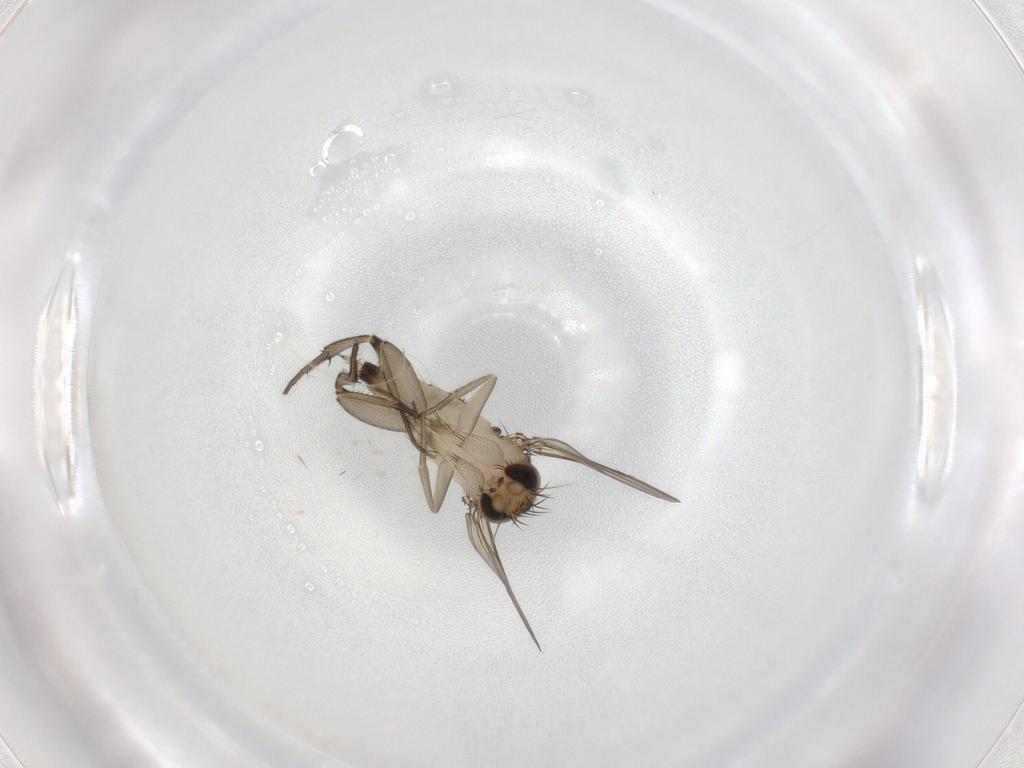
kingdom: Animalia
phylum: Arthropoda
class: Insecta
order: Diptera
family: Phoridae
